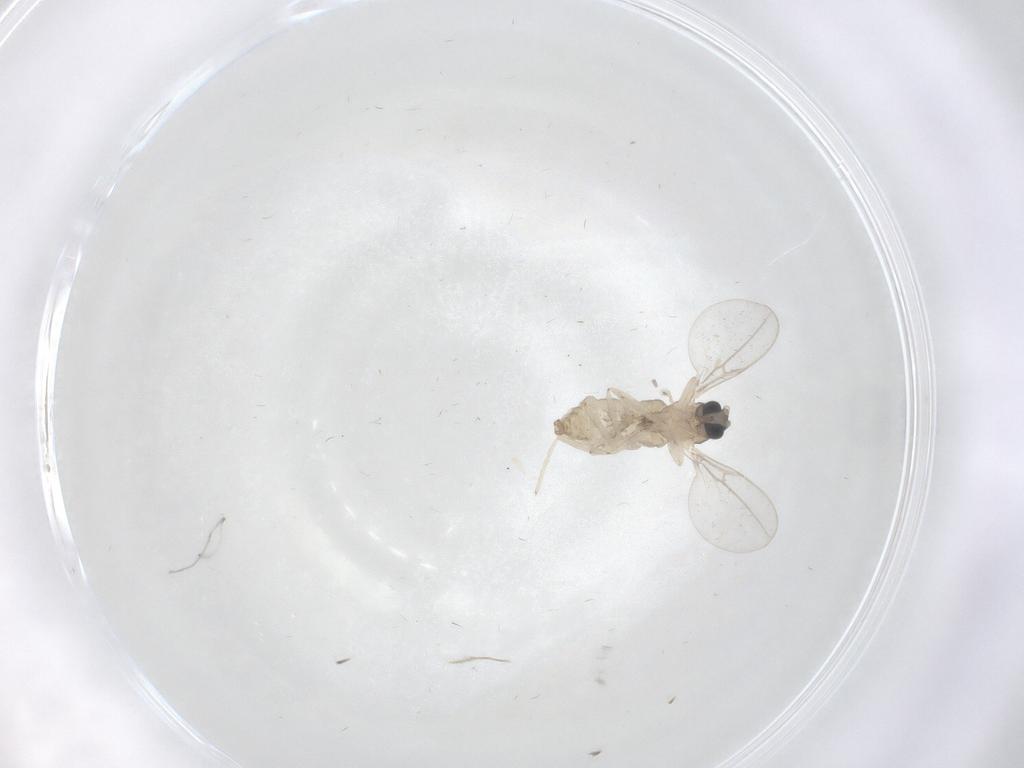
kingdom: Animalia
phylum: Arthropoda
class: Insecta
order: Diptera
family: Cecidomyiidae
